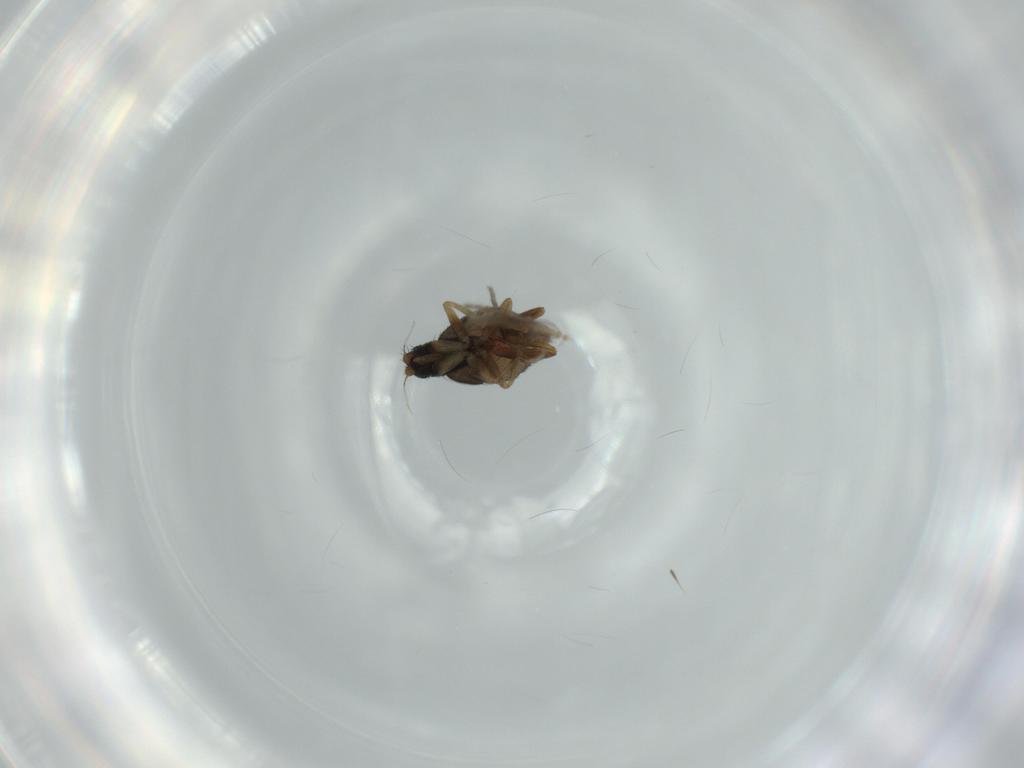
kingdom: Animalia
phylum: Arthropoda
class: Insecta
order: Diptera
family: Phoridae
